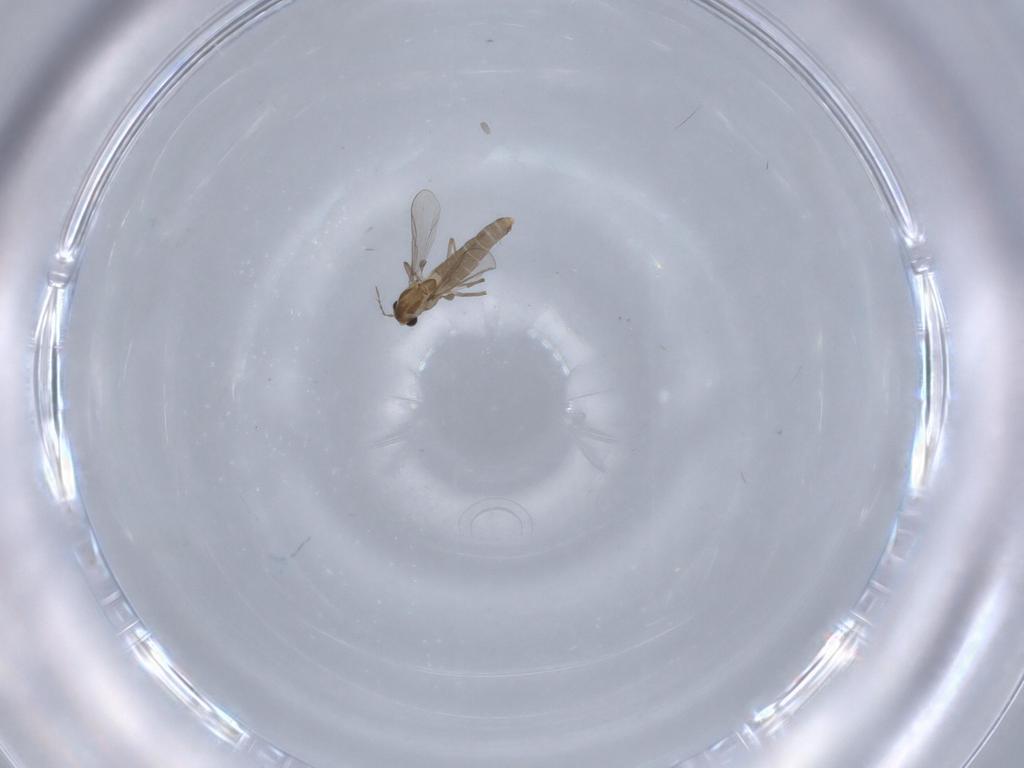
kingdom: Animalia
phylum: Arthropoda
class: Insecta
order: Diptera
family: Chironomidae
